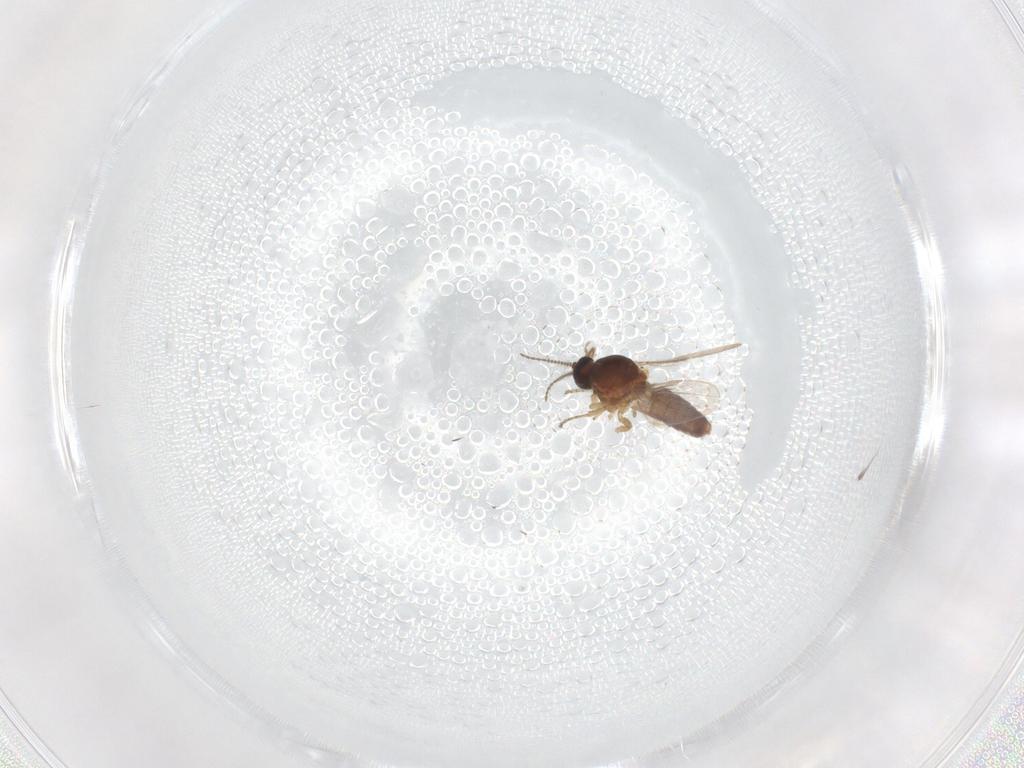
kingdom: Animalia
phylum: Arthropoda
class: Insecta
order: Diptera
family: Ceratopogonidae
